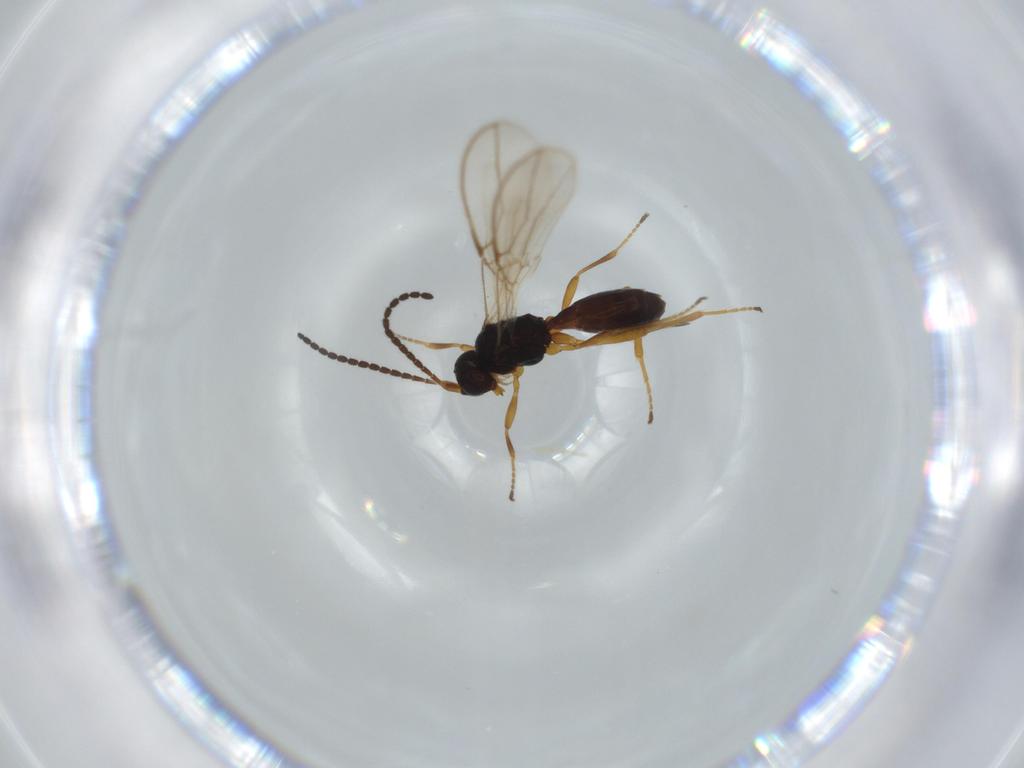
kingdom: Animalia
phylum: Arthropoda
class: Insecta
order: Hymenoptera
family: Braconidae
